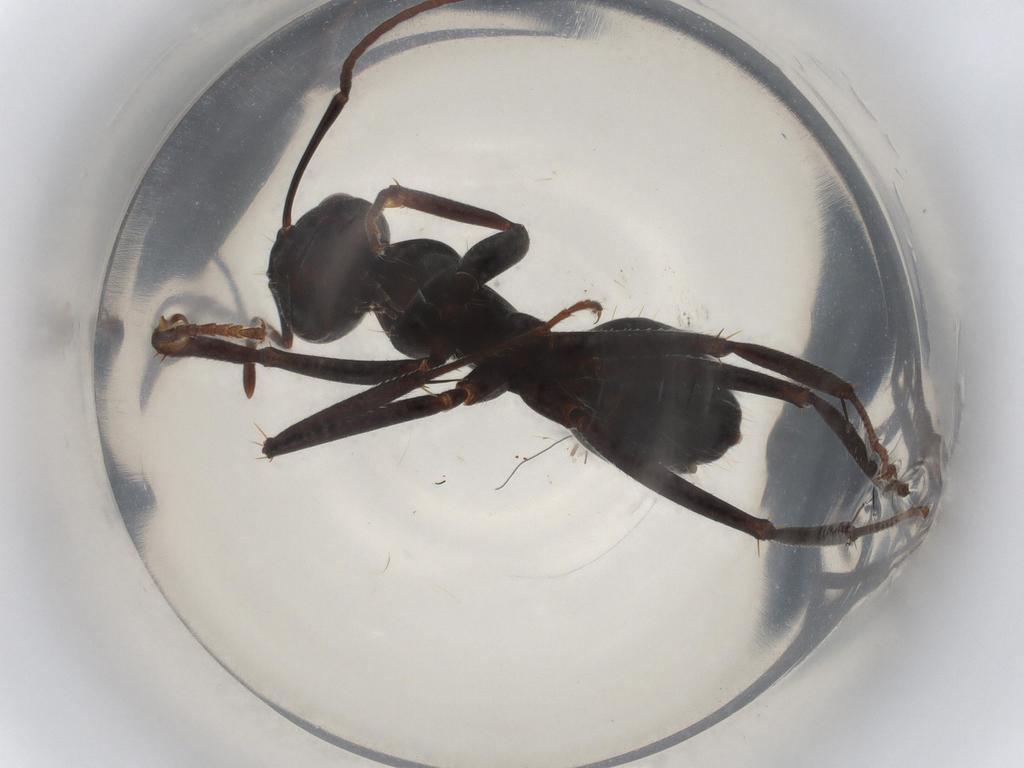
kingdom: Animalia
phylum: Arthropoda
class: Insecta
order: Hymenoptera
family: Formicidae
